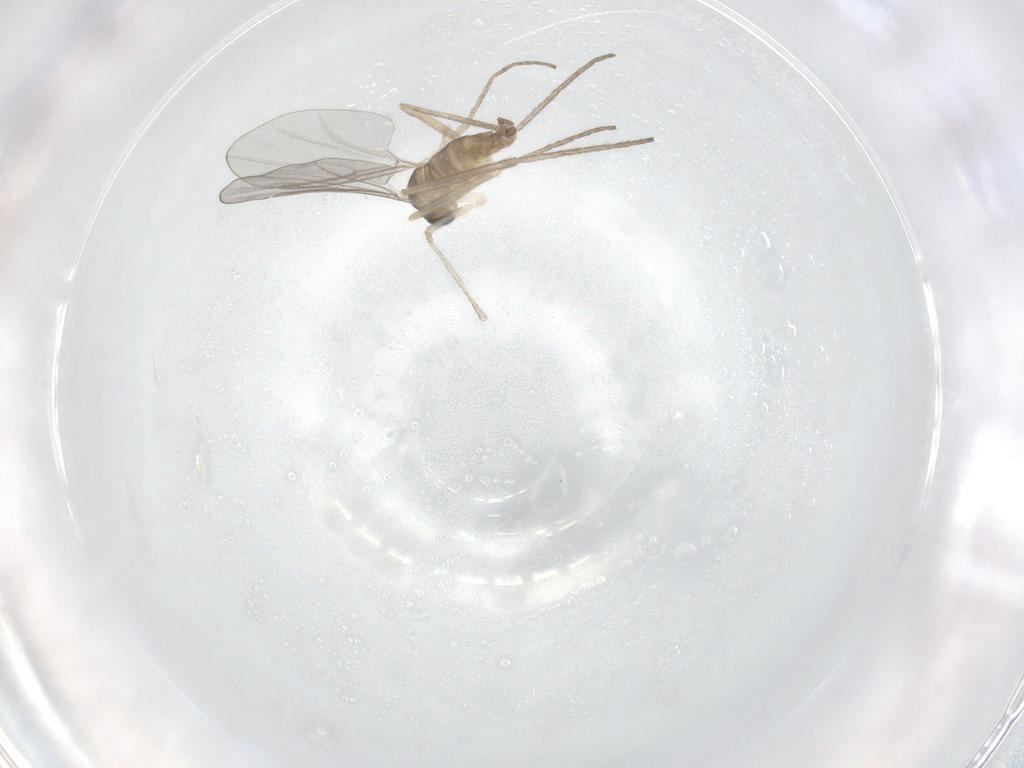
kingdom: Animalia
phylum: Arthropoda
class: Insecta
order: Diptera
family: Cecidomyiidae
